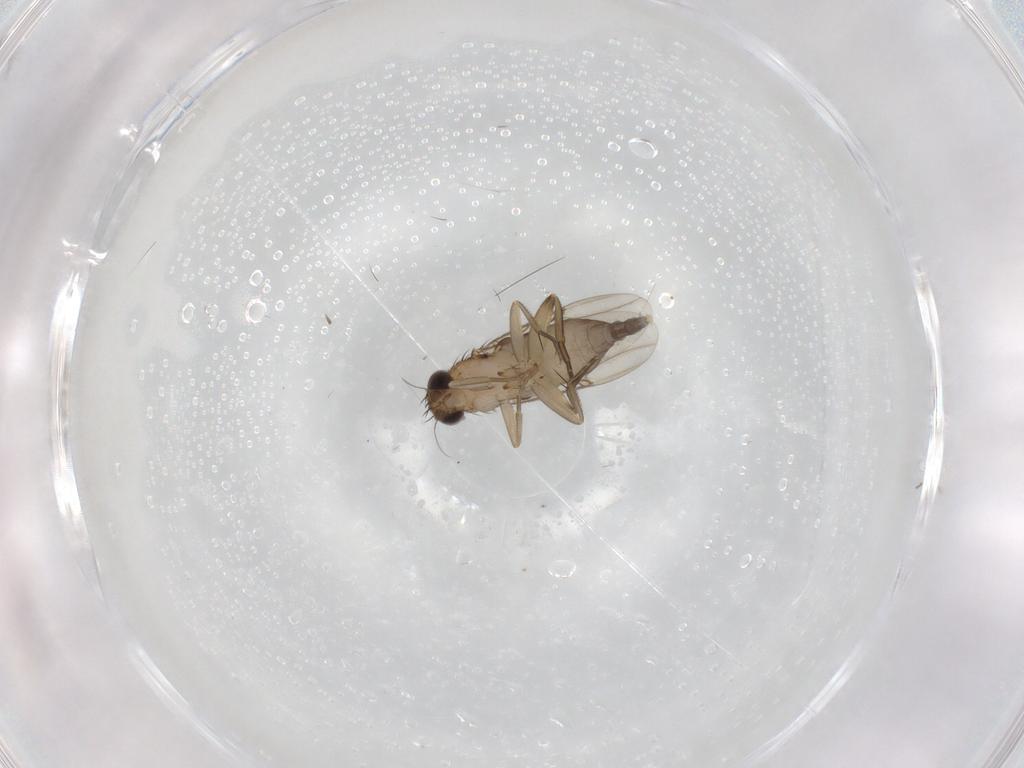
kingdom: Animalia
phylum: Arthropoda
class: Insecta
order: Diptera
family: Phoridae
